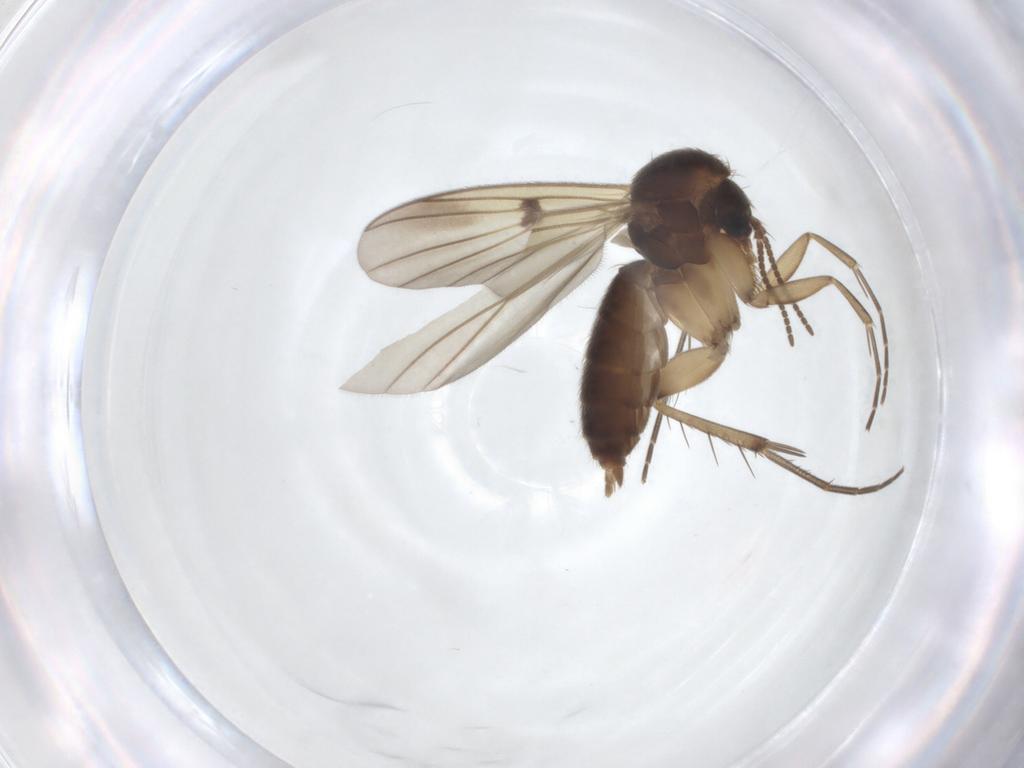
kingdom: Animalia
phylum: Arthropoda
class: Insecta
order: Diptera
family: Mycetophilidae
